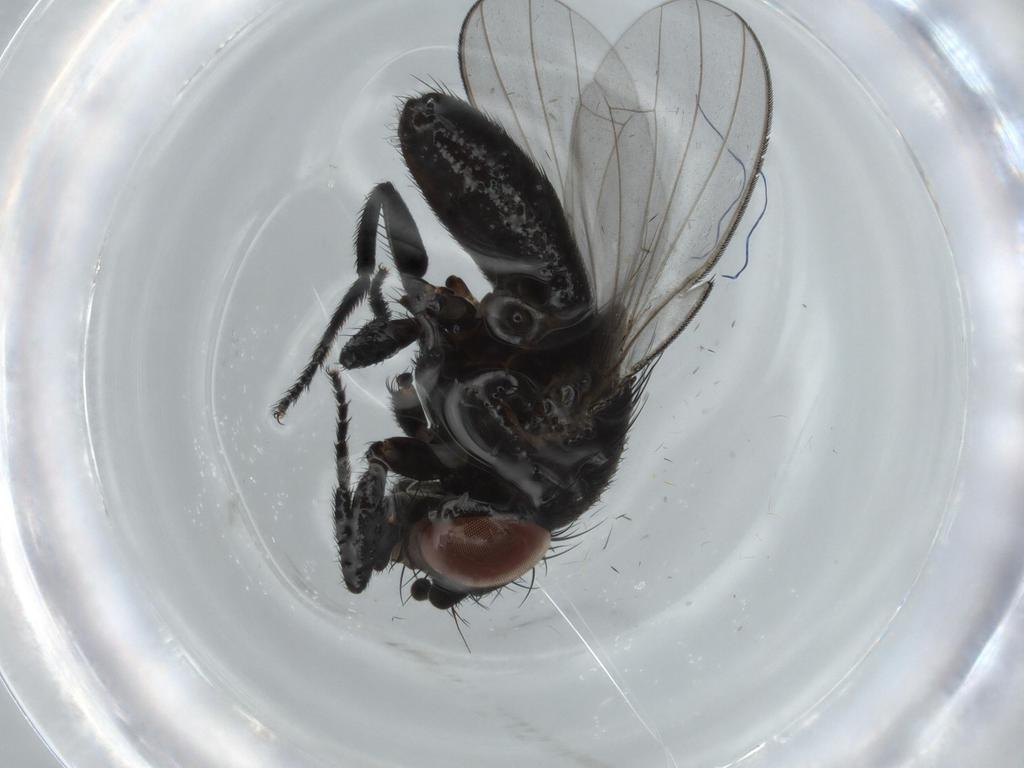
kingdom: Animalia
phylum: Arthropoda
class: Insecta
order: Diptera
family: Milichiidae
